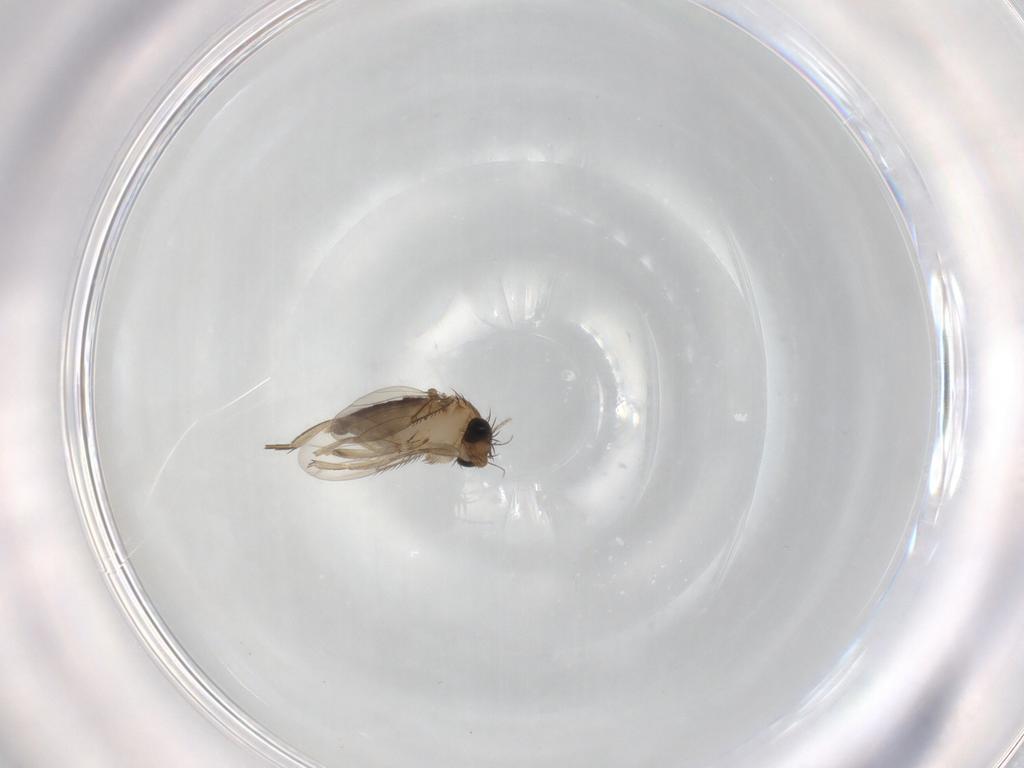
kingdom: Animalia
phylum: Arthropoda
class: Insecta
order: Diptera
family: Phoridae
